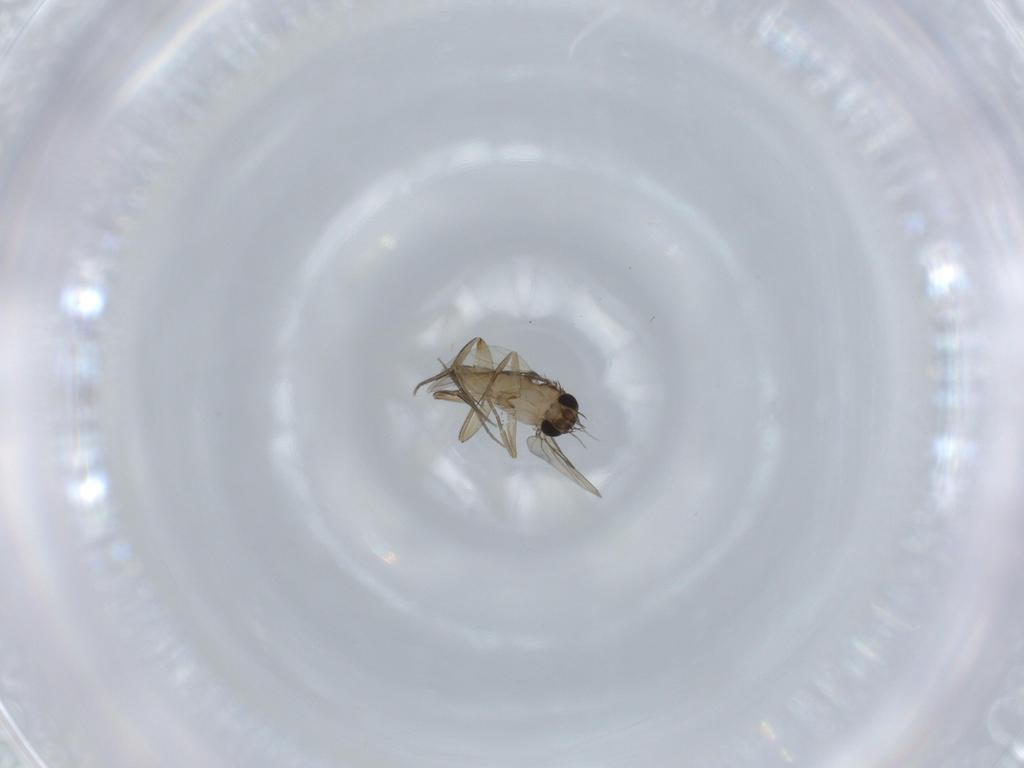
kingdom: Animalia
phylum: Arthropoda
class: Insecta
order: Diptera
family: Phoridae
